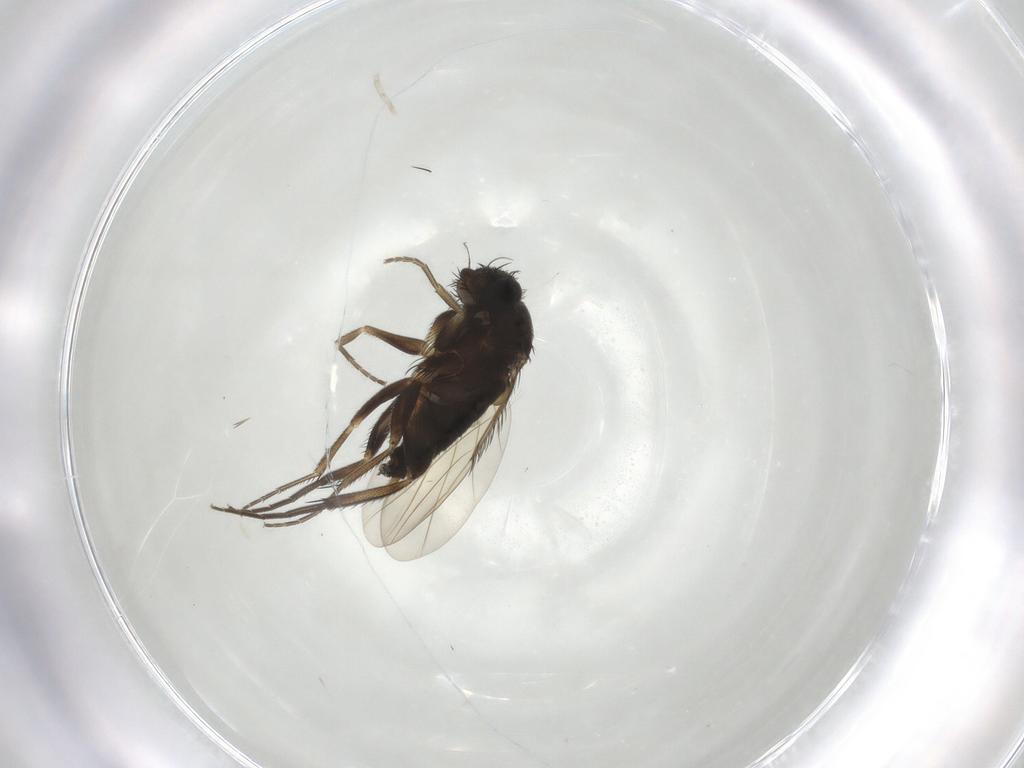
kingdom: Animalia
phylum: Arthropoda
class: Insecta
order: Diptera
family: Phoridae
